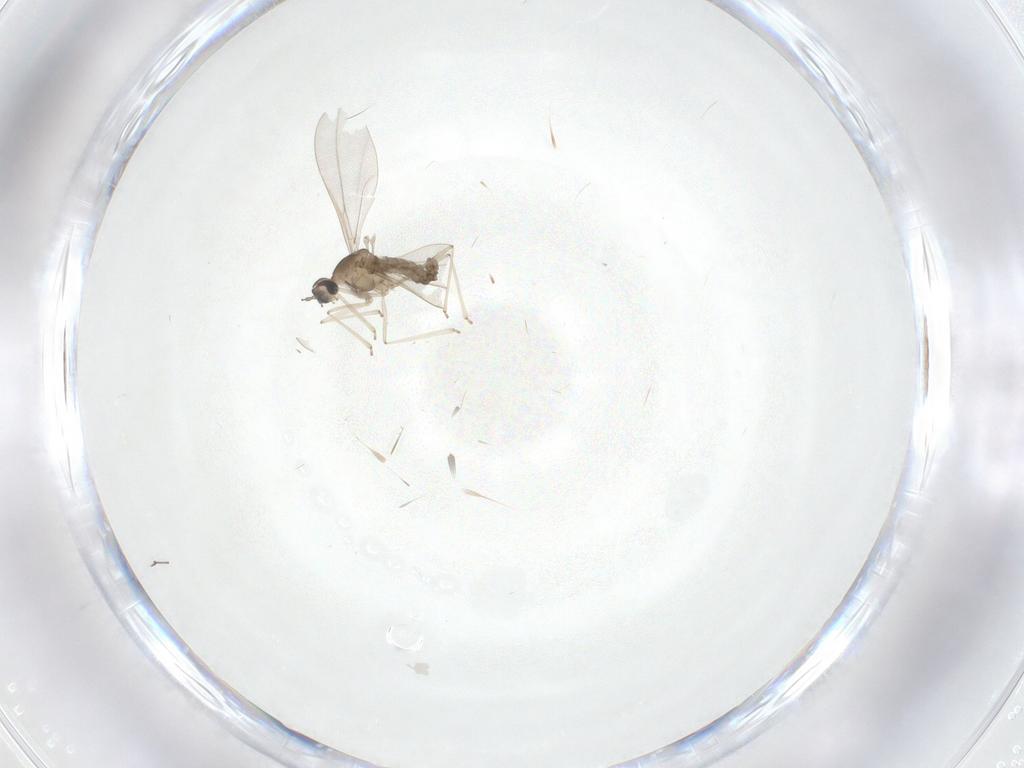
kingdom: Animalia
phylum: Arthropoda
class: Insecta
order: Diptera
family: Cecidomyiidae
